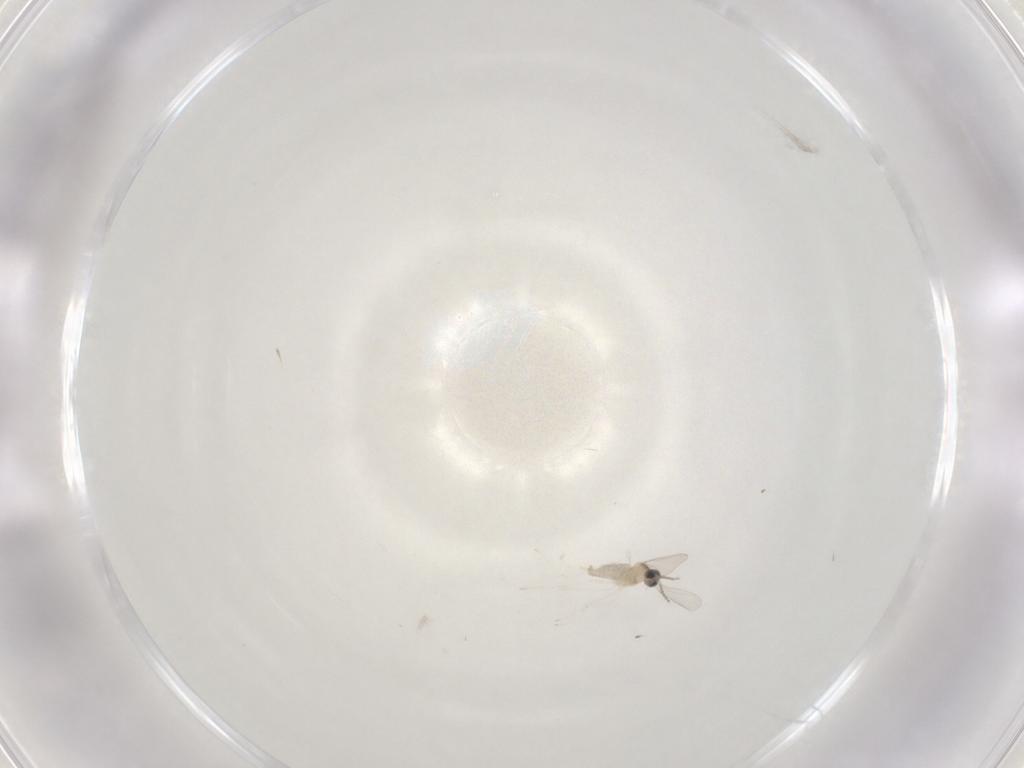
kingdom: Animalia
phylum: Arthropoda
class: Insecta
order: Diptera
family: Cecidomyiidae
